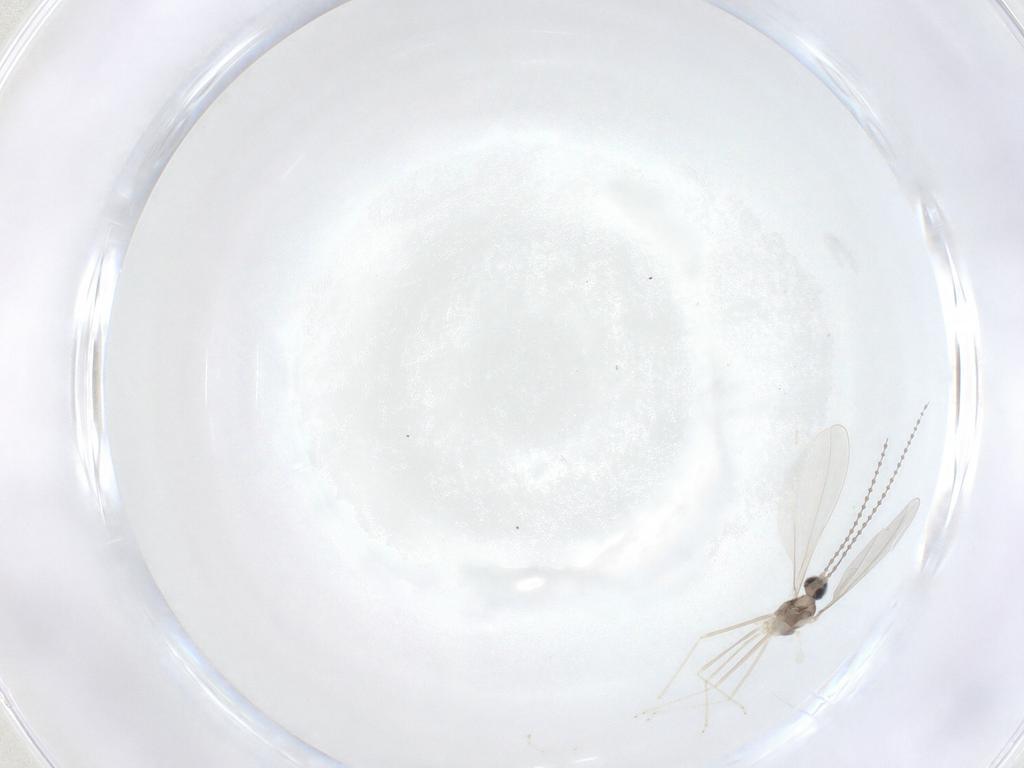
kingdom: Animalia
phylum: Arthropoda
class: Insecta
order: Diptera
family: Cecidomyiidae
